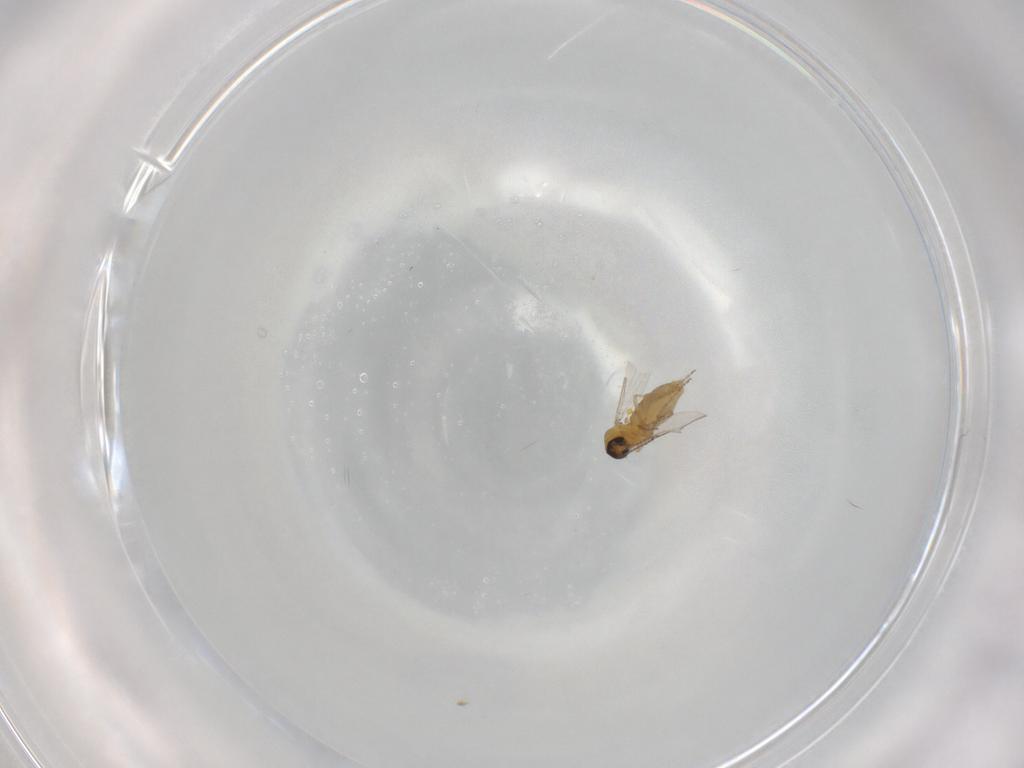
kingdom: Animalia
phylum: Arthropoda
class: Insecta
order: Diptera
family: Ceratopogonidae
